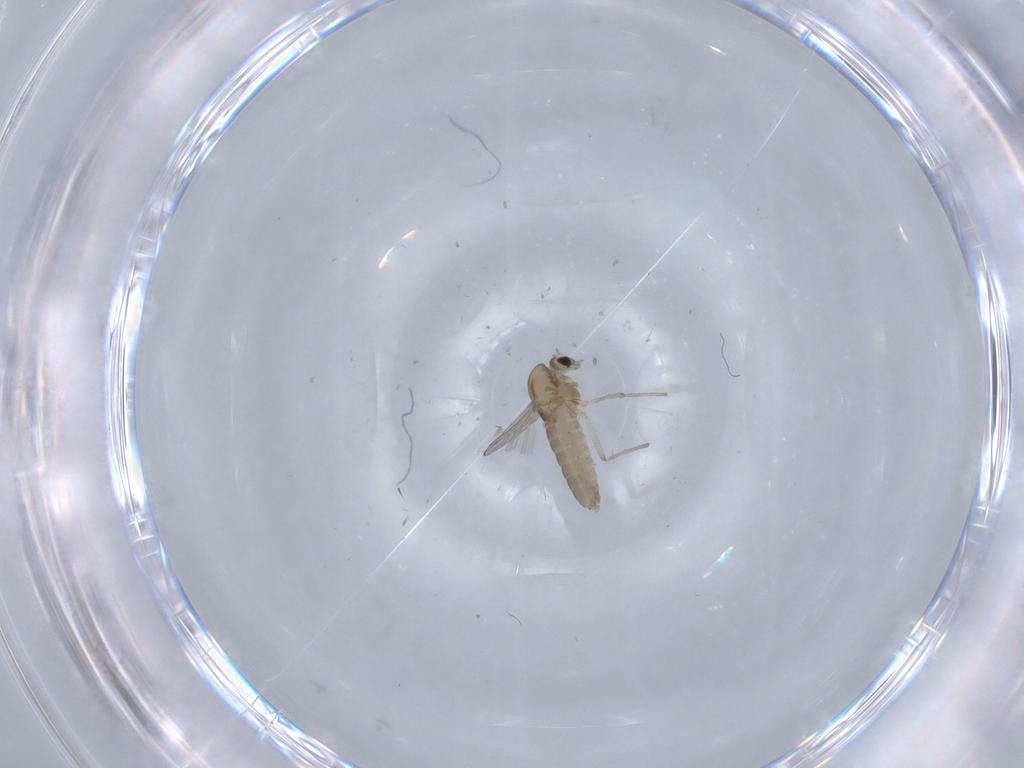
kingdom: Animalia
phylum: Arthropoda
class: Insecta
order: Diptera
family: Chironomidae
